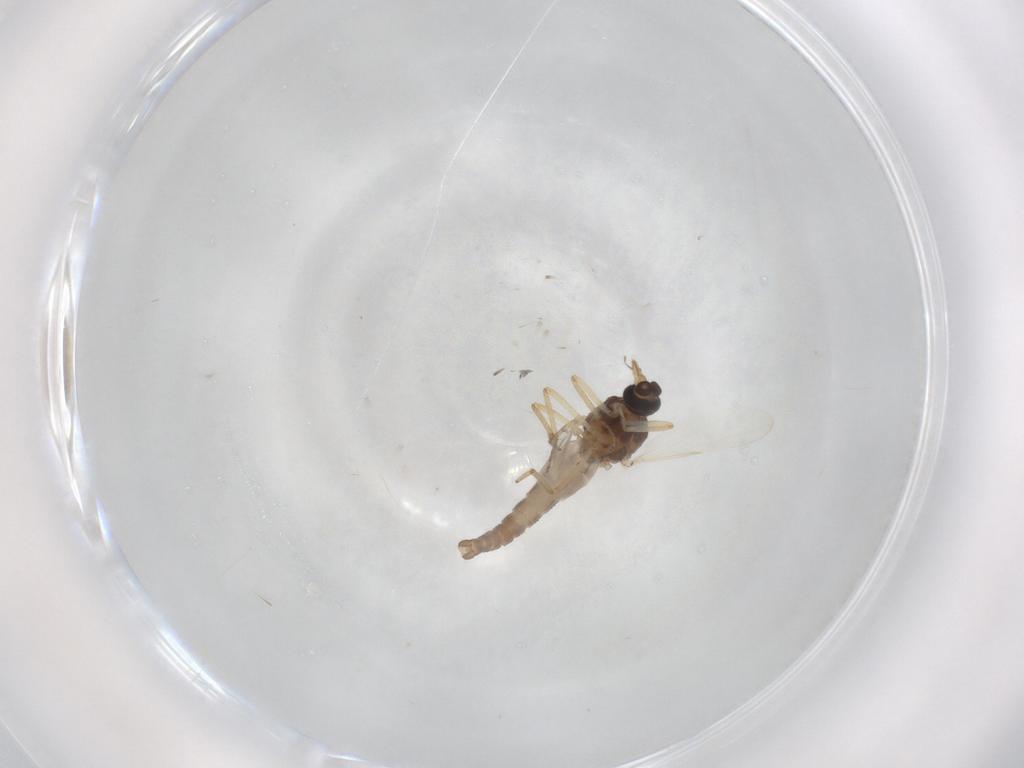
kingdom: Animalia
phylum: Arthropoda
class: Insecta
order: Diptera
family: Ceratopogonidae
